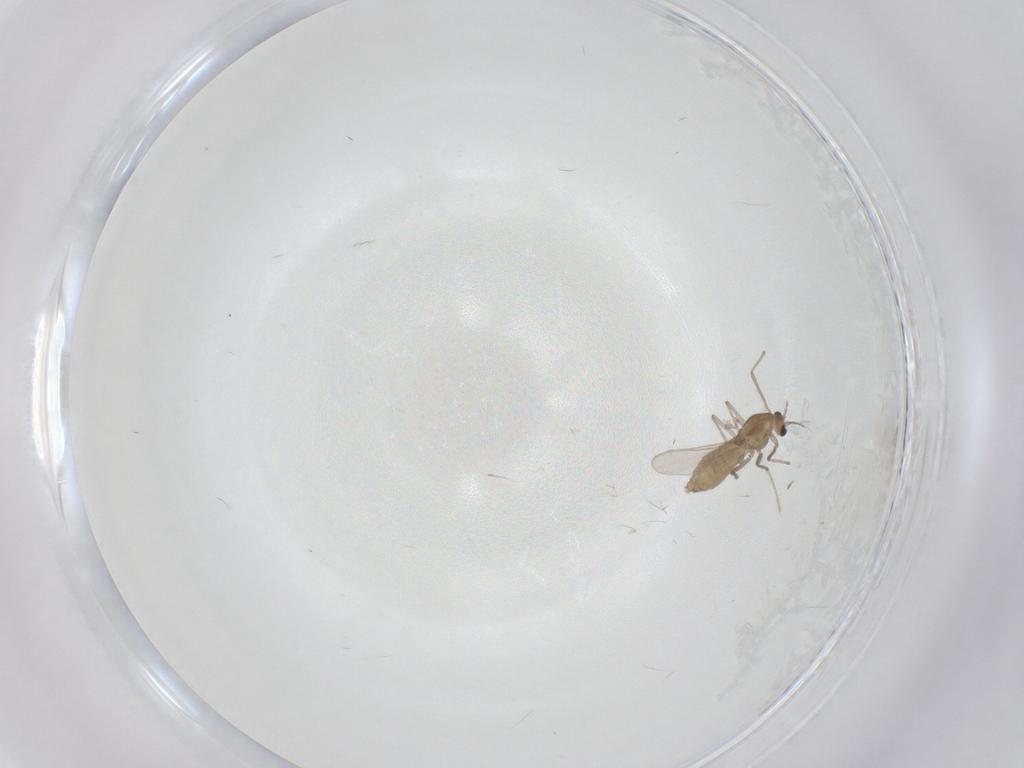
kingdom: Animalia
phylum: Arthropoda
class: Insecta
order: Diptera
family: Chironomidae
